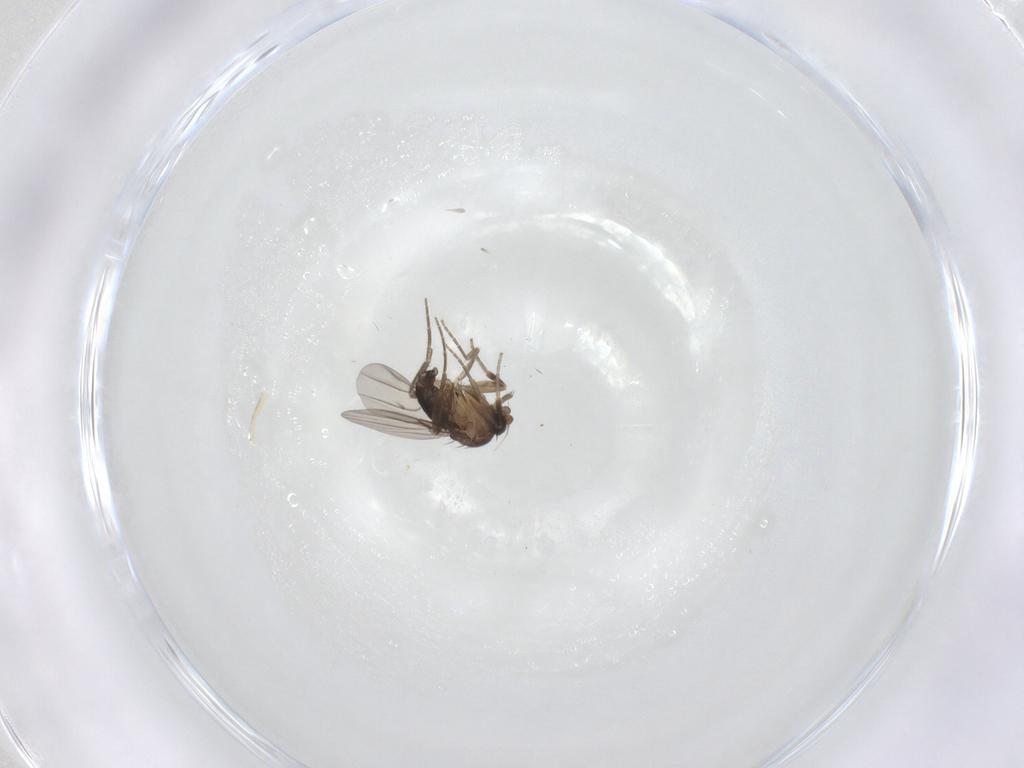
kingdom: Animalia
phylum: Arthropoda
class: Insecta
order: Diptera
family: Phoridae
